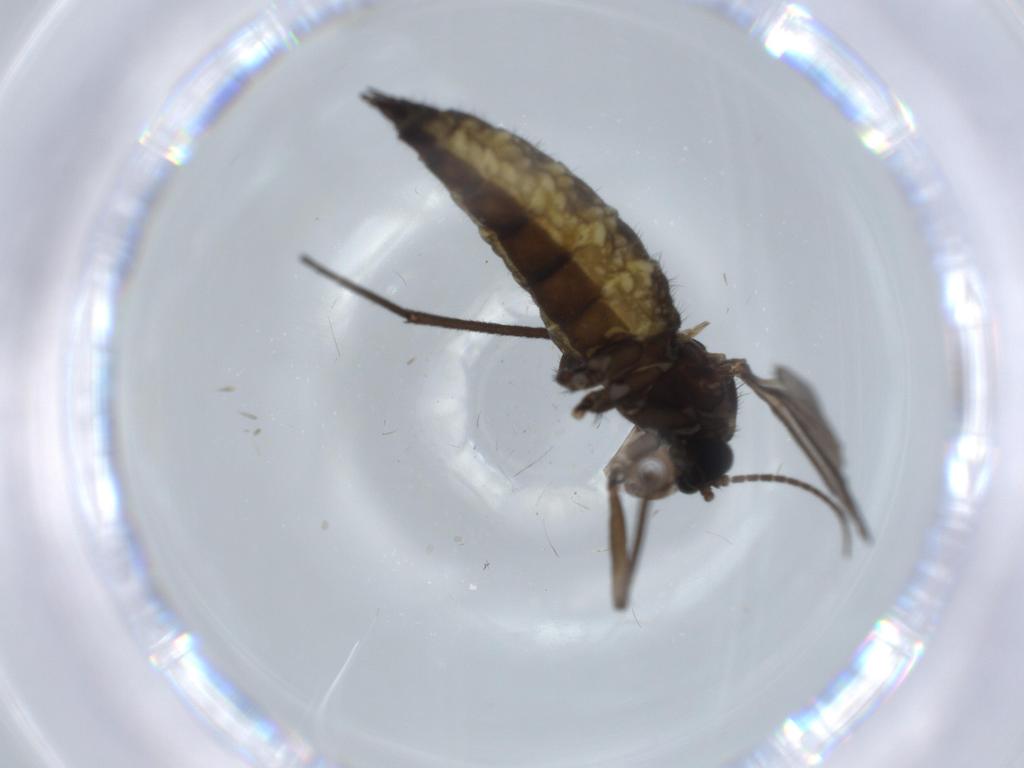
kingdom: Animalia
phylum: Arthropoda
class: Insecta
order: Diptera
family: Sciaridae
